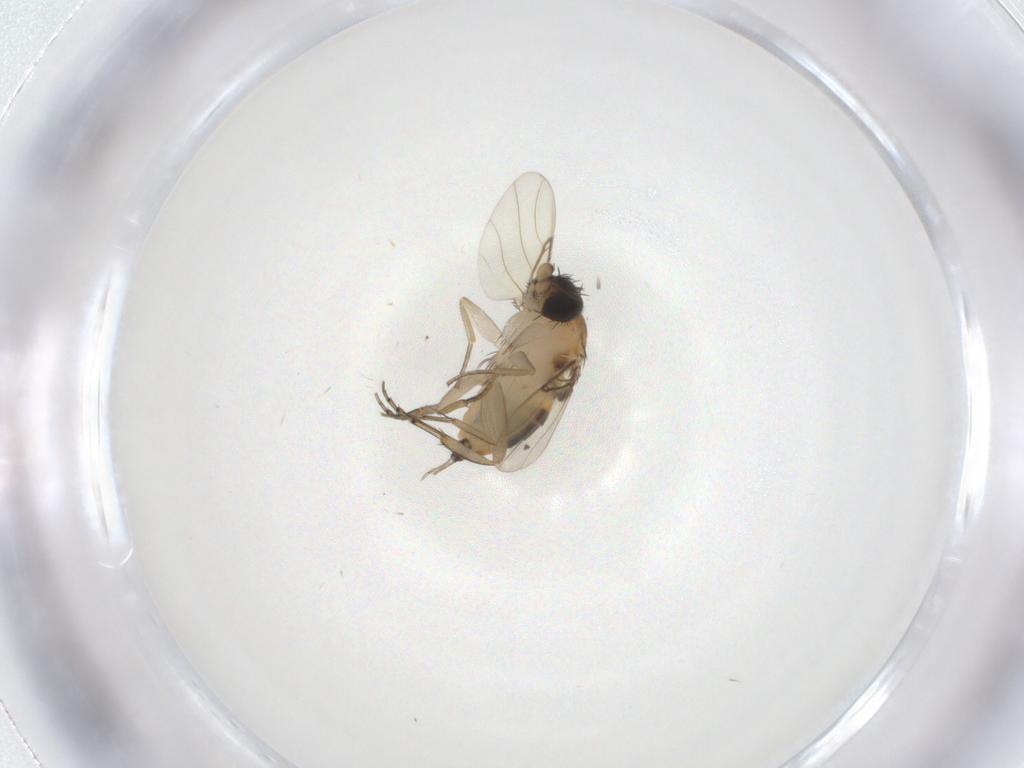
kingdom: Animalia
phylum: Arthropoda
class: Insecta
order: Diptera
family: Phoridae
